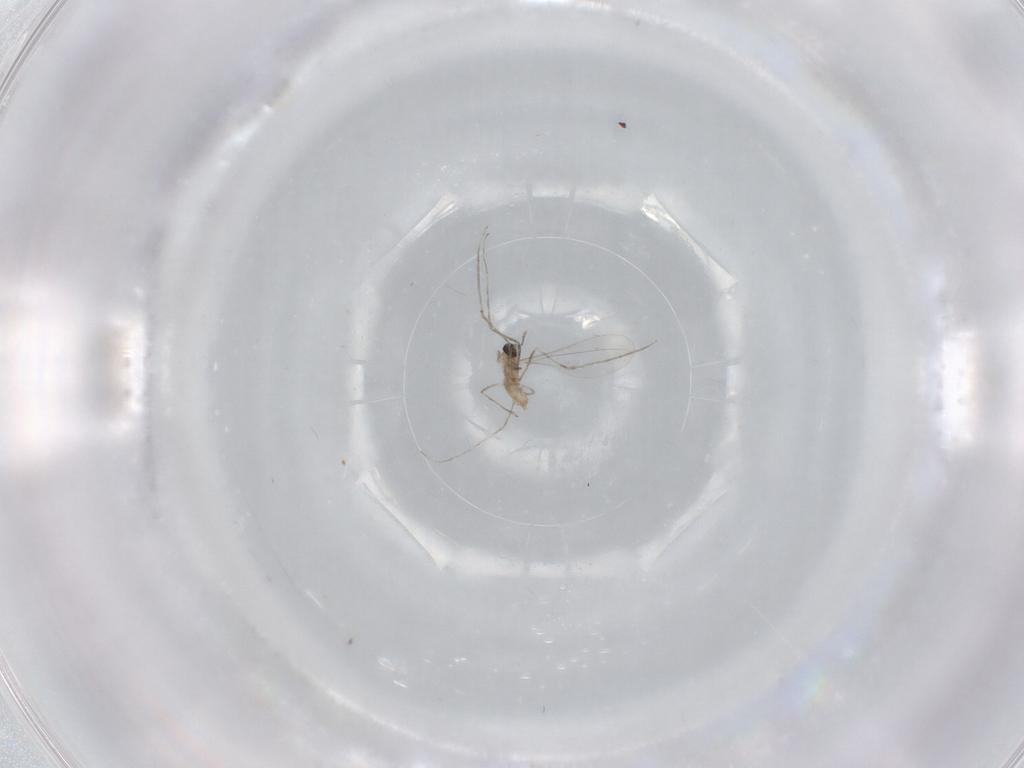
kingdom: Animalia
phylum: Arthropoda
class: Insecta
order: Diptera
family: Cecidomyiidae
